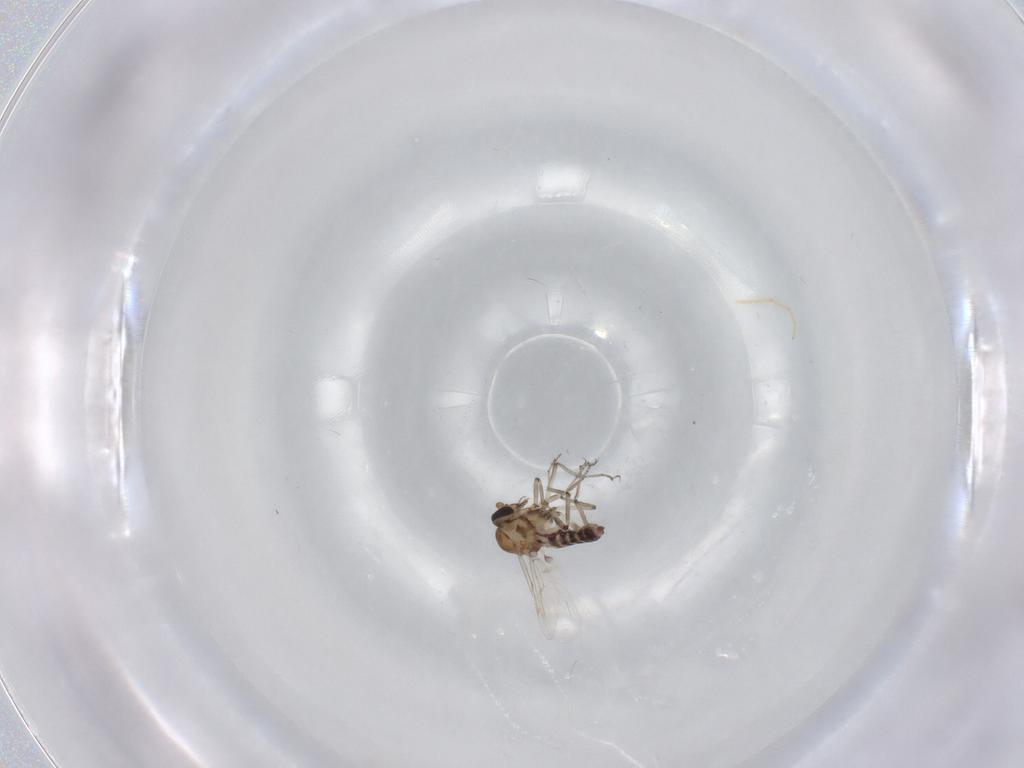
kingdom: Animalia
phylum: Arthropoda
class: Insecta
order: Diptera
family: Ceratopogonidae
